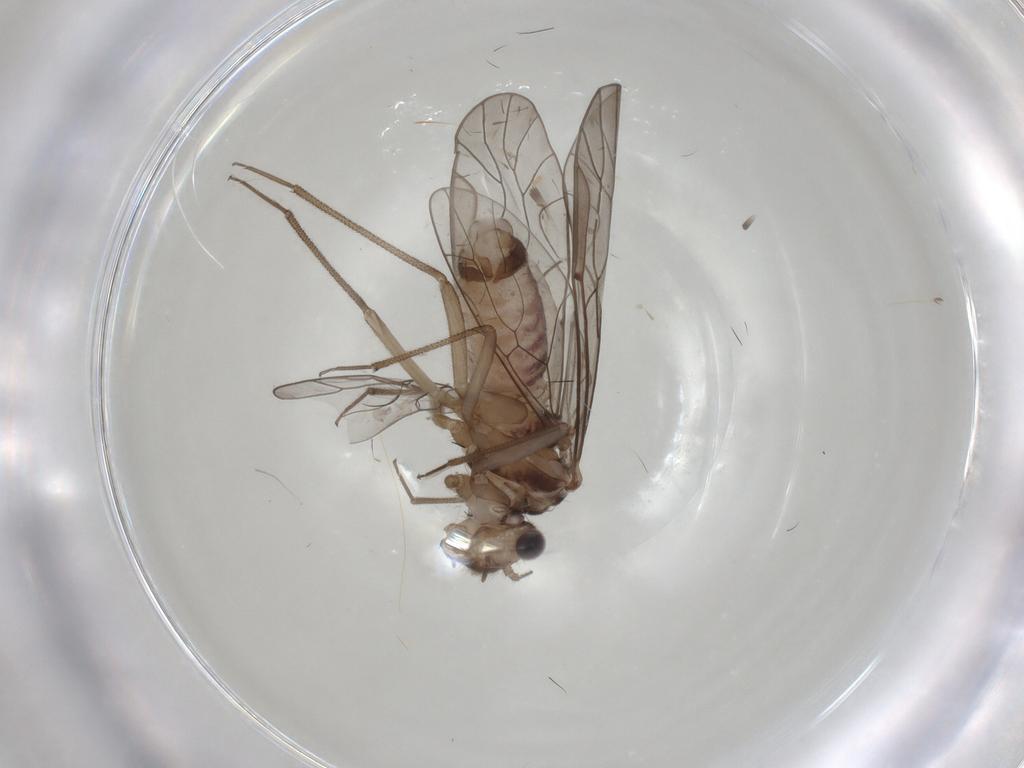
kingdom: Animalia
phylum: Arthropoda
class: Insecta
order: Psocodea
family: Lachesillidae
